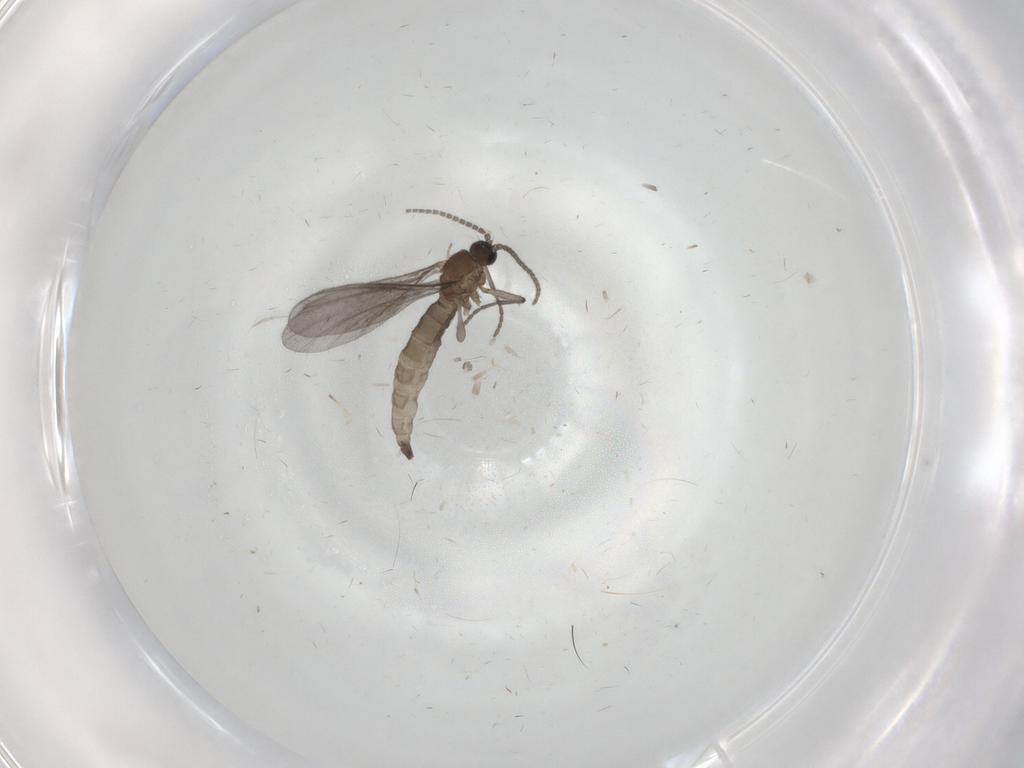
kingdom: Animalia
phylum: Arthropoda
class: Insecta
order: Diptera
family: Sciaridae
